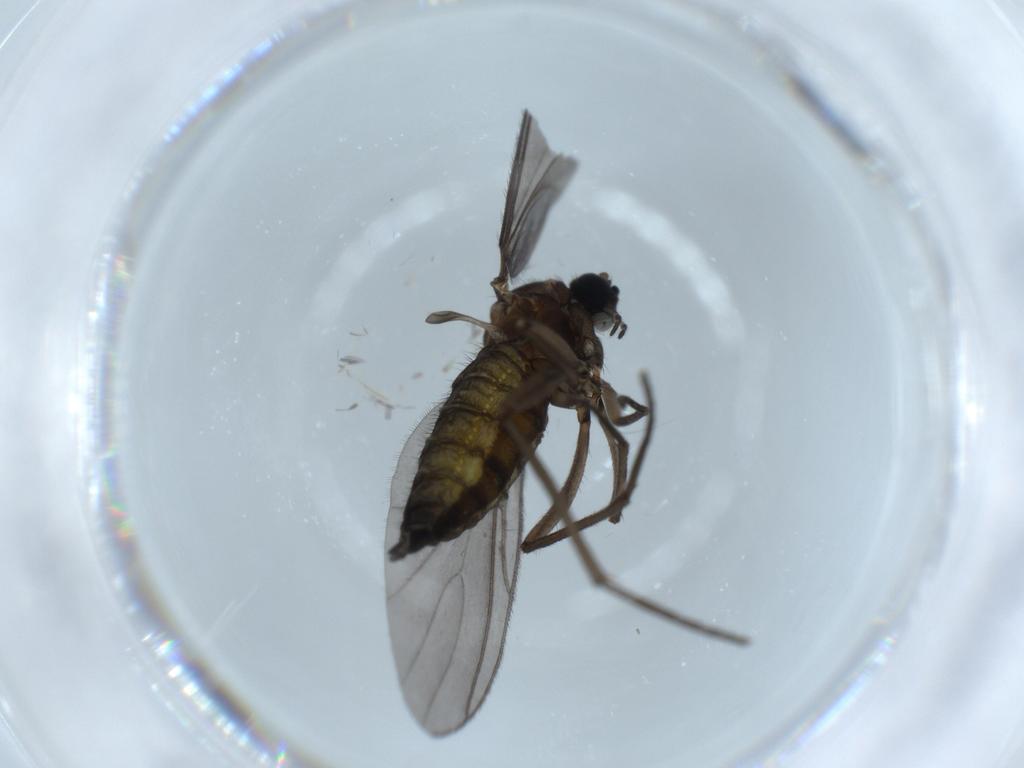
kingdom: Animalia
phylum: Arthropoda
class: Insecta
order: Diptera
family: Sciaridae
